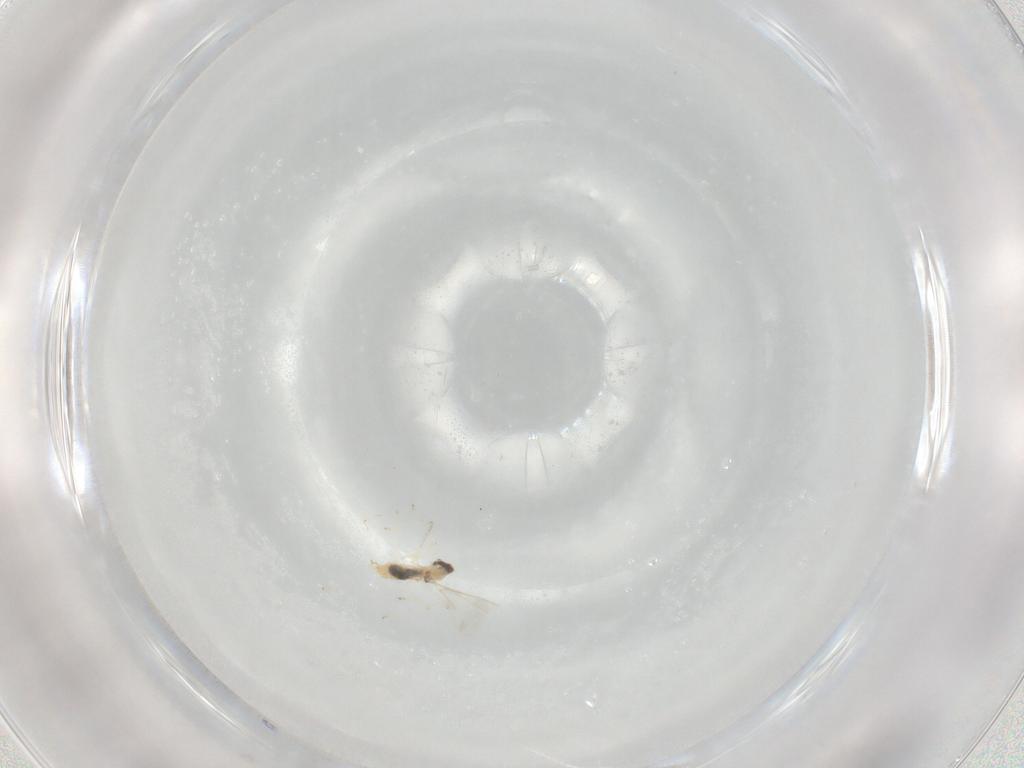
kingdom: Animalia
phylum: Arthropoda
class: Insecta
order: Diptera
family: Cecidomyiidae
